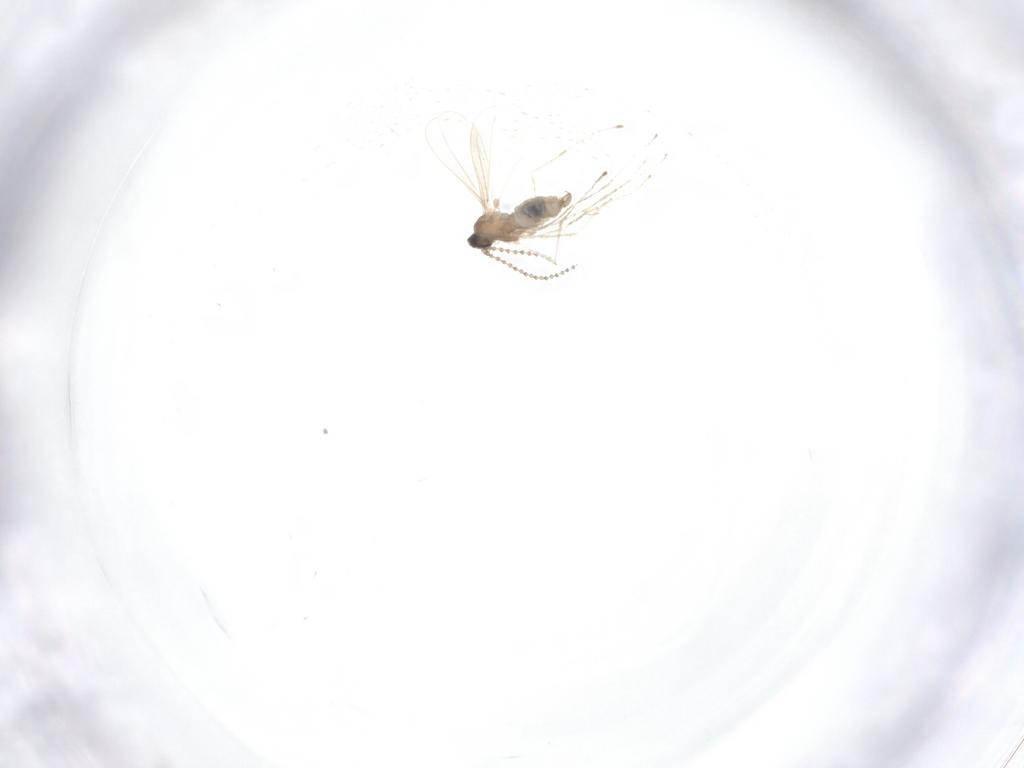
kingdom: Animalia
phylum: Arthropoda
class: Insecta
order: Diptera
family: Cecidomyiidae
